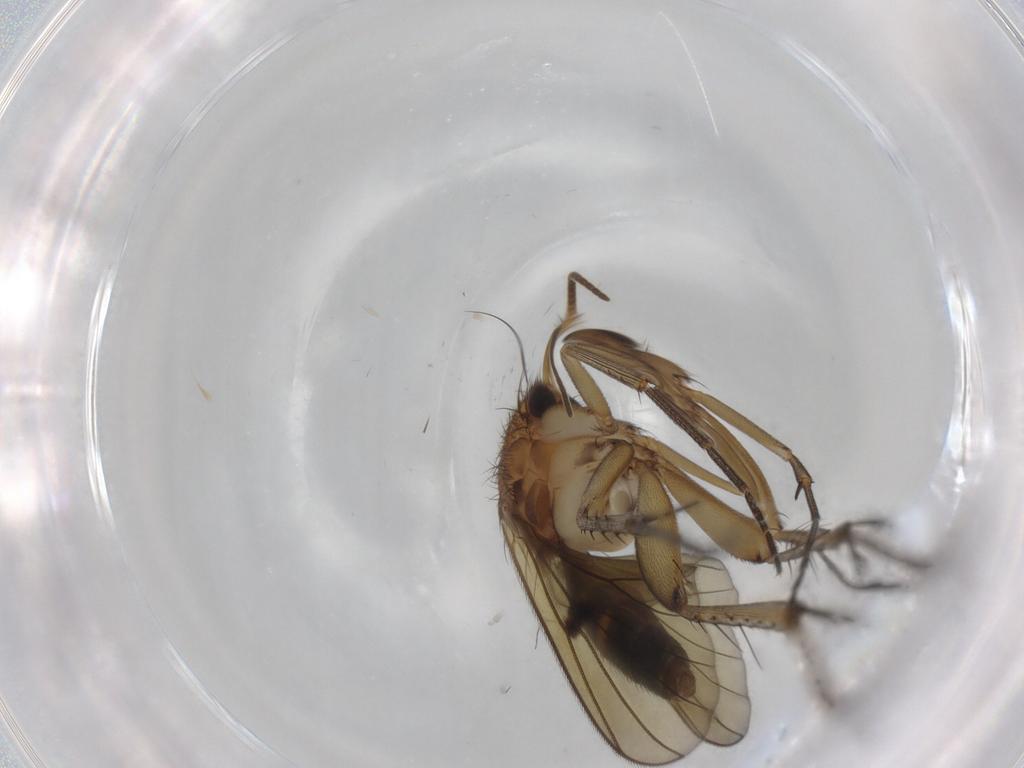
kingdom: Animalia
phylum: Arthropoda
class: Insecta
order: Diptera
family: Mycetophilidae
